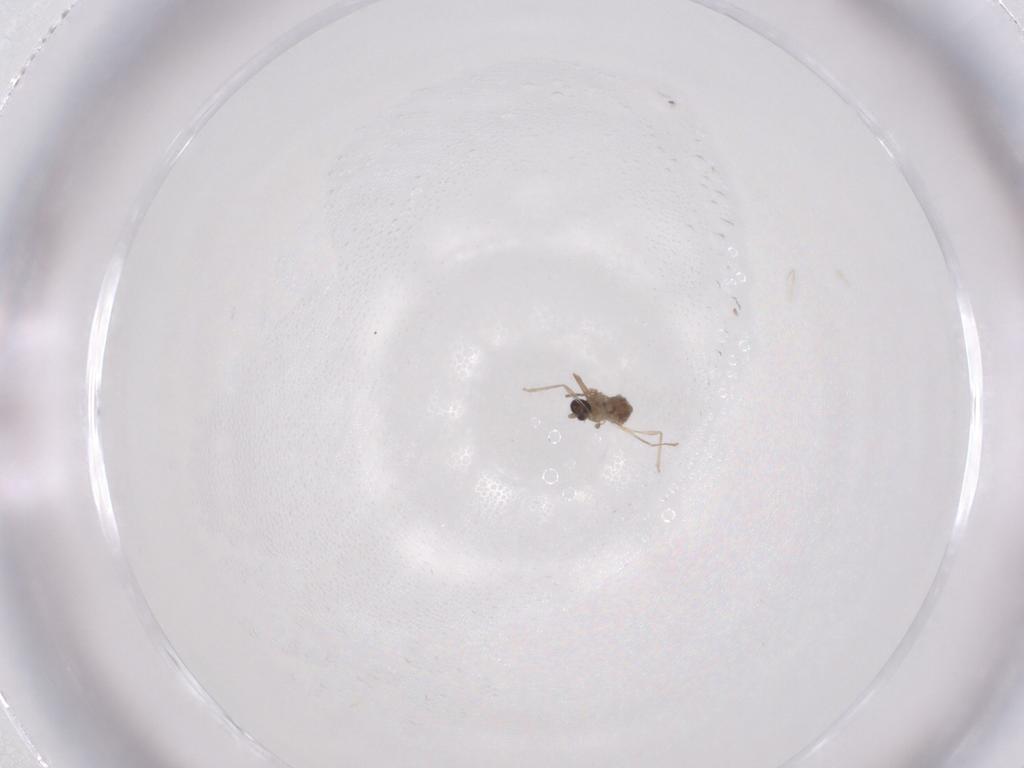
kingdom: Animalia
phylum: Arthropoda
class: Insecta
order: Diptera
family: Cecidomyiidae
